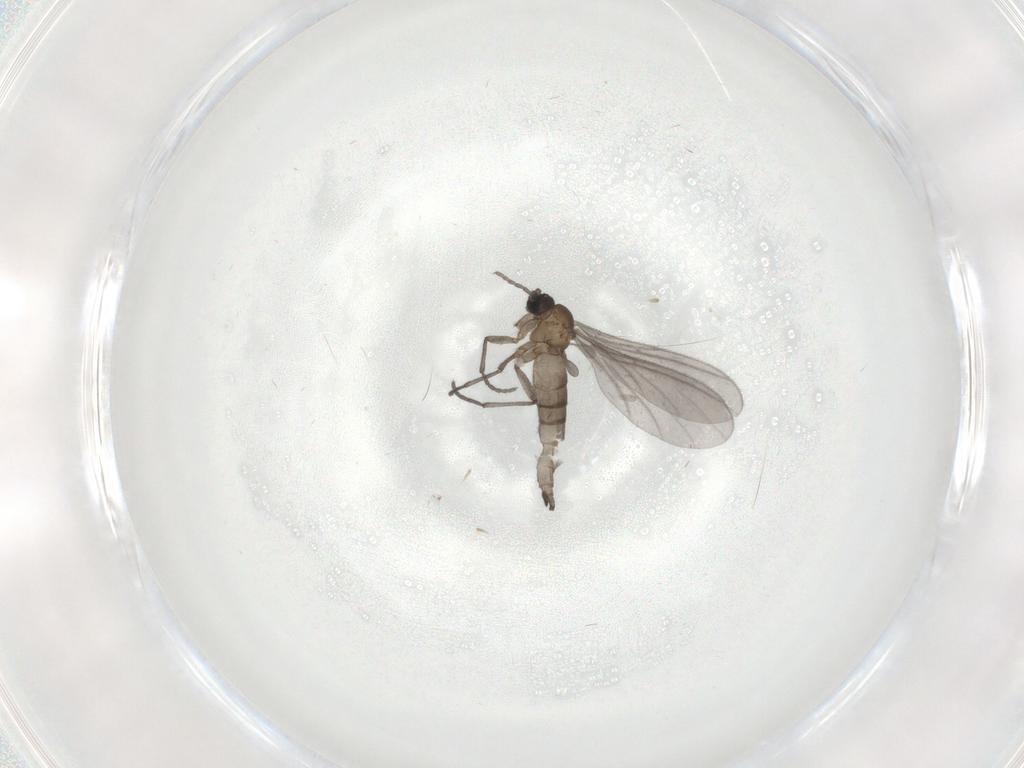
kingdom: Animalia
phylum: Arthropoda
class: Insecta
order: Diptera
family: Sciaridae
